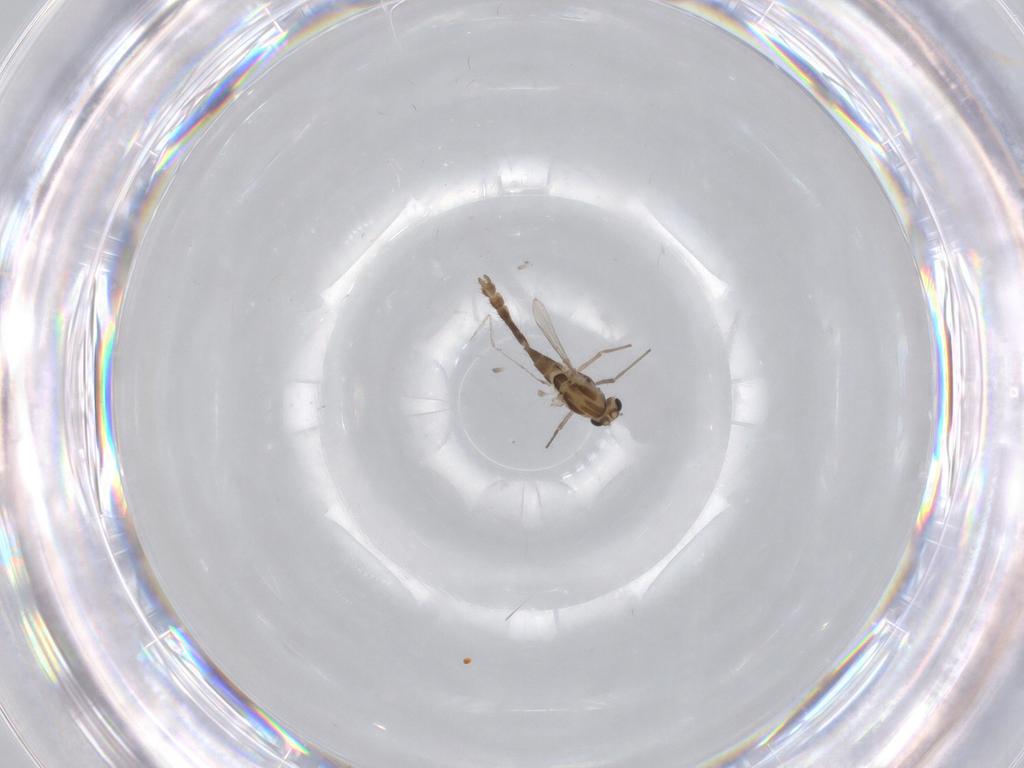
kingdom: Animalia
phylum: Arthropoda
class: Insecta
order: Diptera
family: Chironomidae
